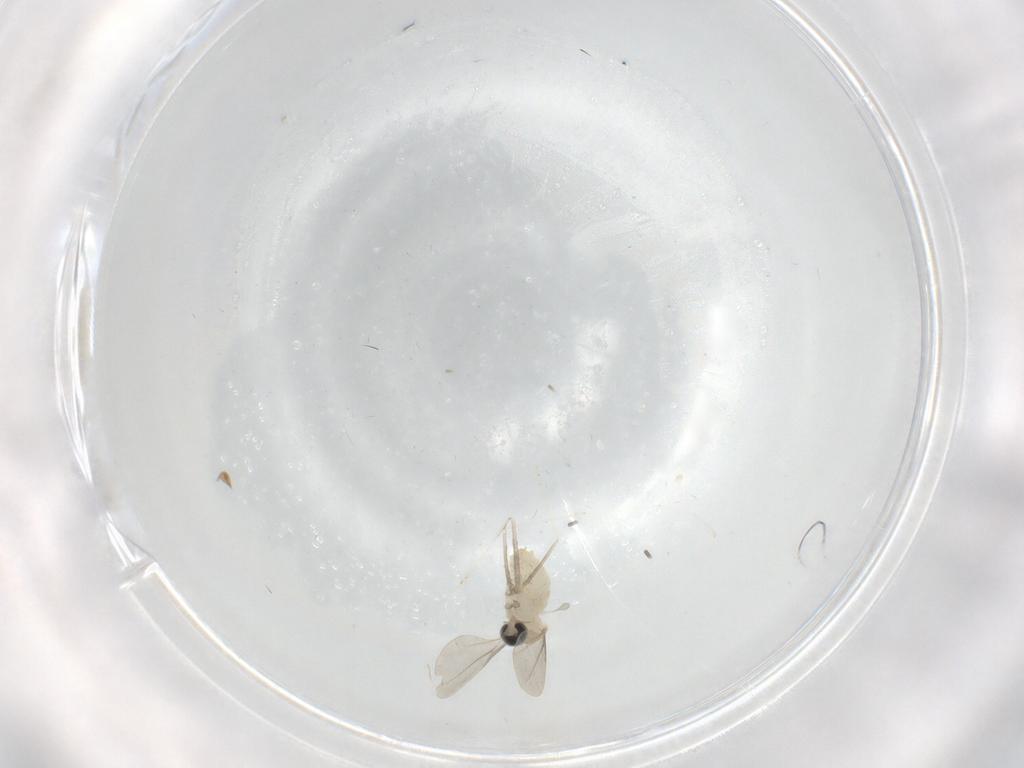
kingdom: Animalia
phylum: Arthropoda
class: Insecta
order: Diptera
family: Cecidomyiidae
